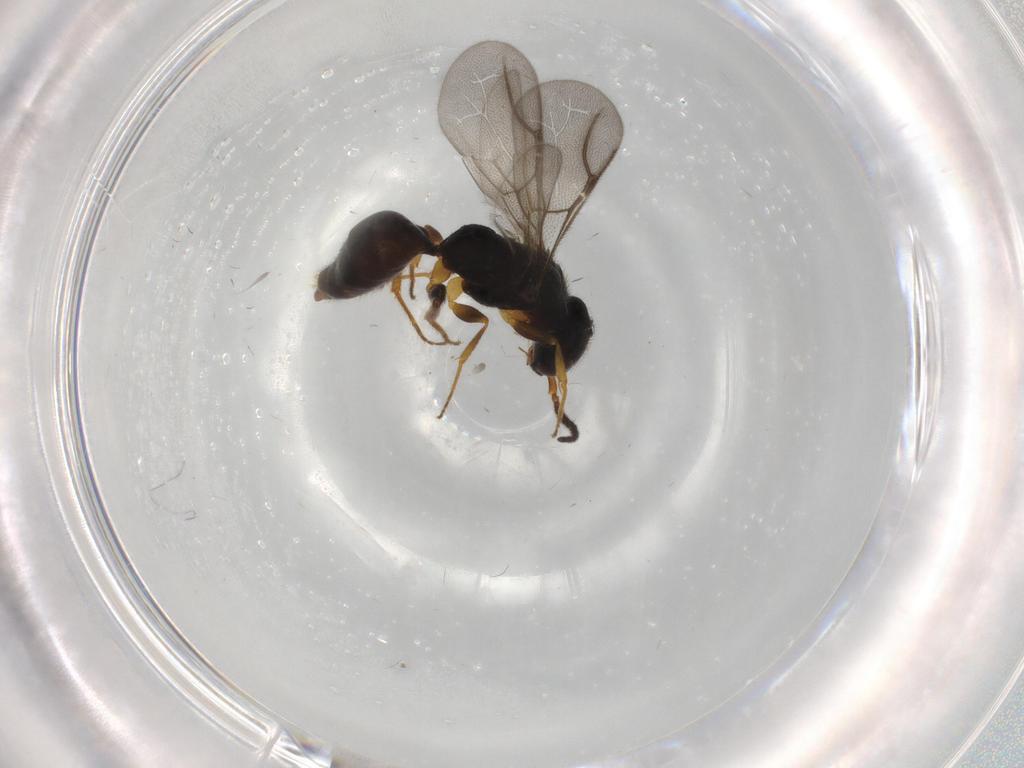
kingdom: Animalia
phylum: Arthropoda
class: Insecta
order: Hymenoptera
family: Bethylidae
